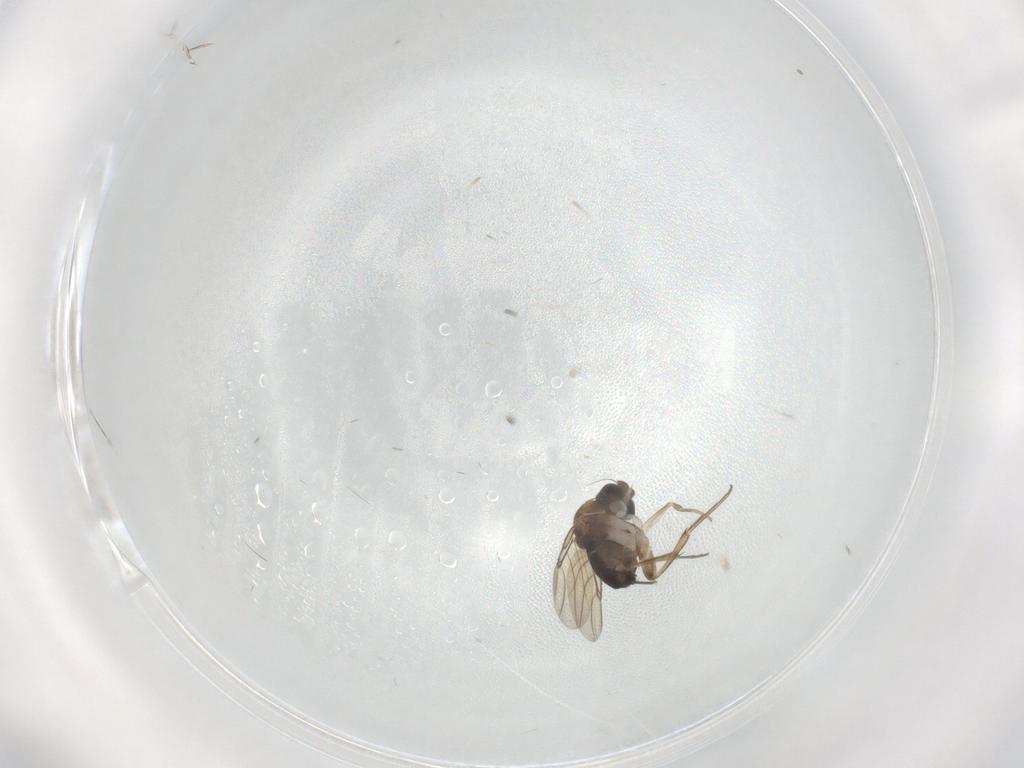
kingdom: Animalia
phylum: Arthropoda
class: Insecta
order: Diptera
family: Phoridae
